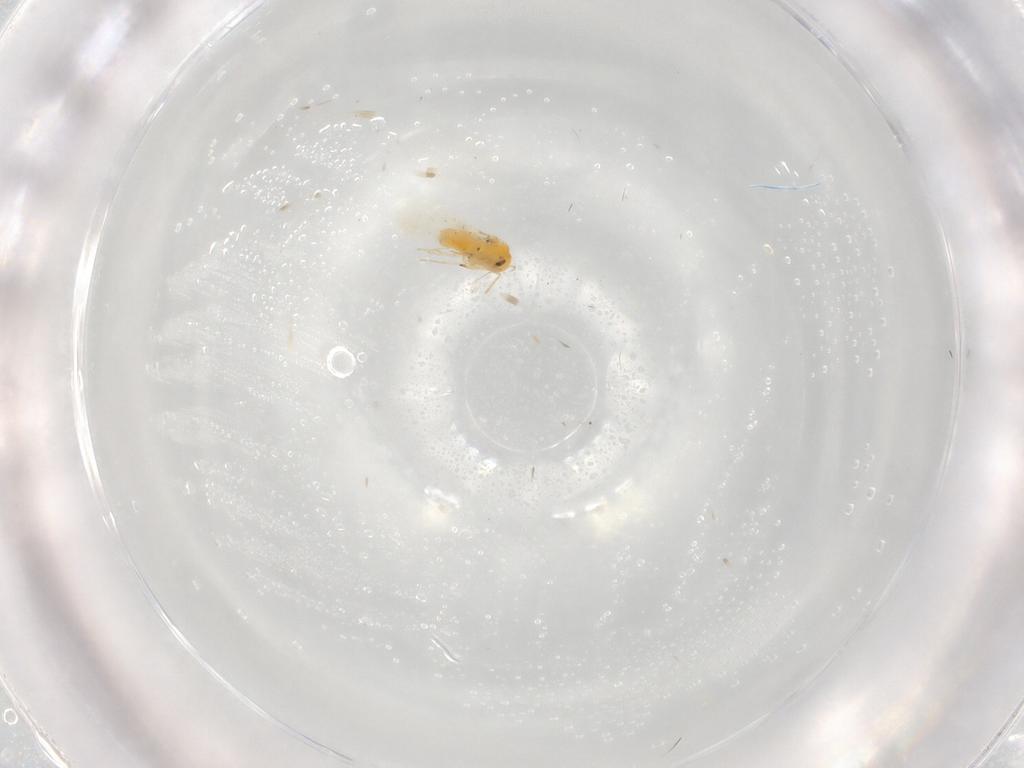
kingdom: Animalia
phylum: Arthropoda
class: Insecta
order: Hemiptera
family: Aleyrodidae
